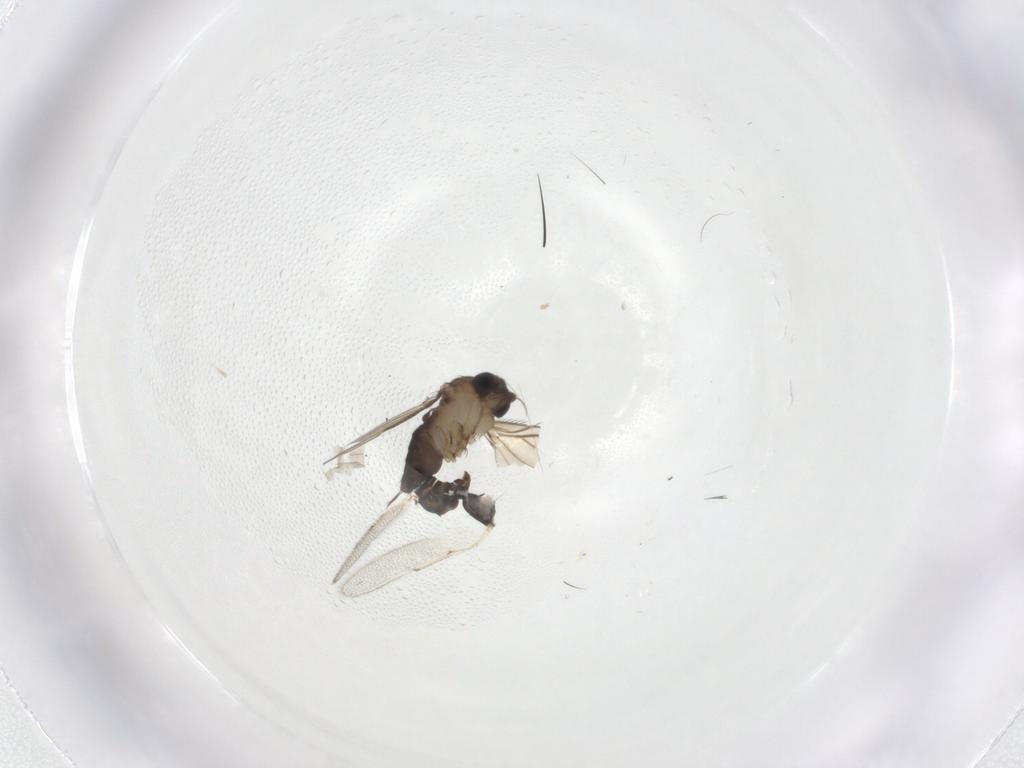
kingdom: Animalia
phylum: Arthropoda
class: Insecta
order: Diptera
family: Phoridae
